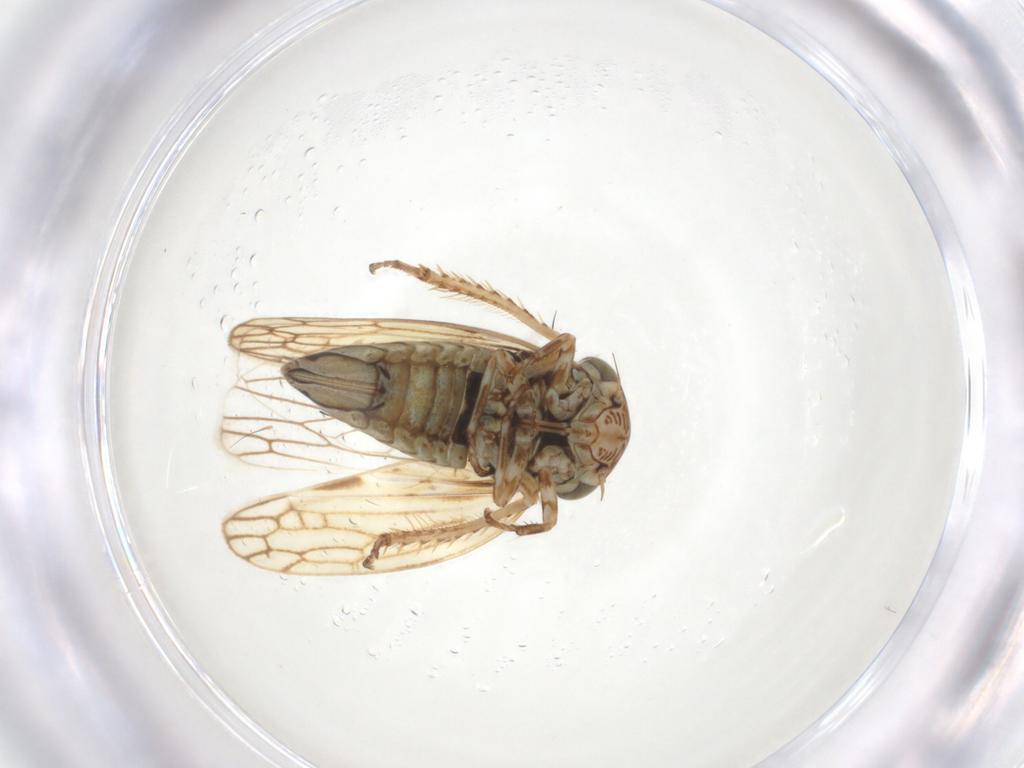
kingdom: Animalia
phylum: Arthropoda
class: Insecta
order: Hemiptera
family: Cicadellidae
